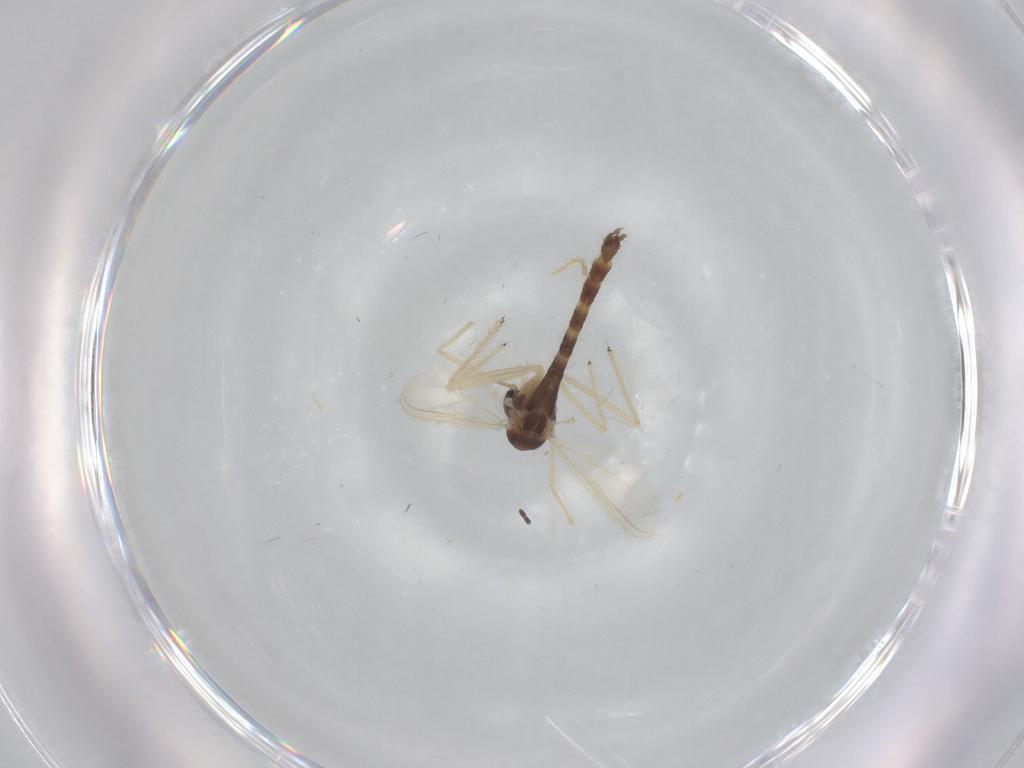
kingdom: Animalia
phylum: Arthropoda
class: Insecta
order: Diptera
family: Chironomidae
